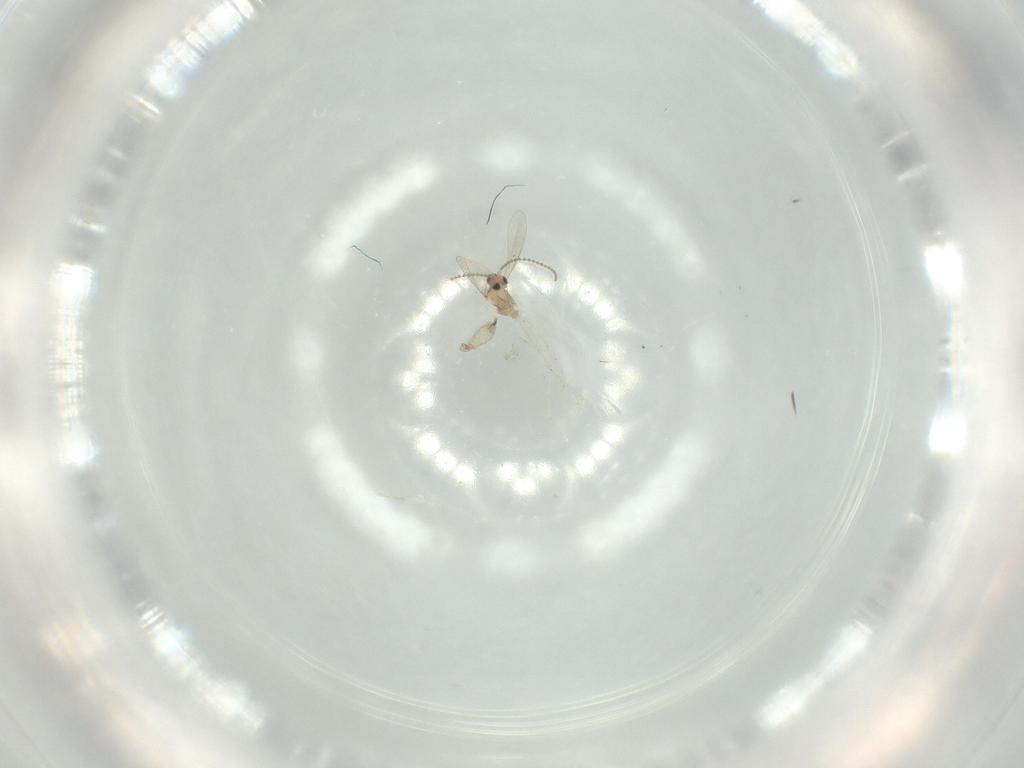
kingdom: Animalia
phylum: Arthropoda
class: Insecta
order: Diptera
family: Cecidomyiidae
